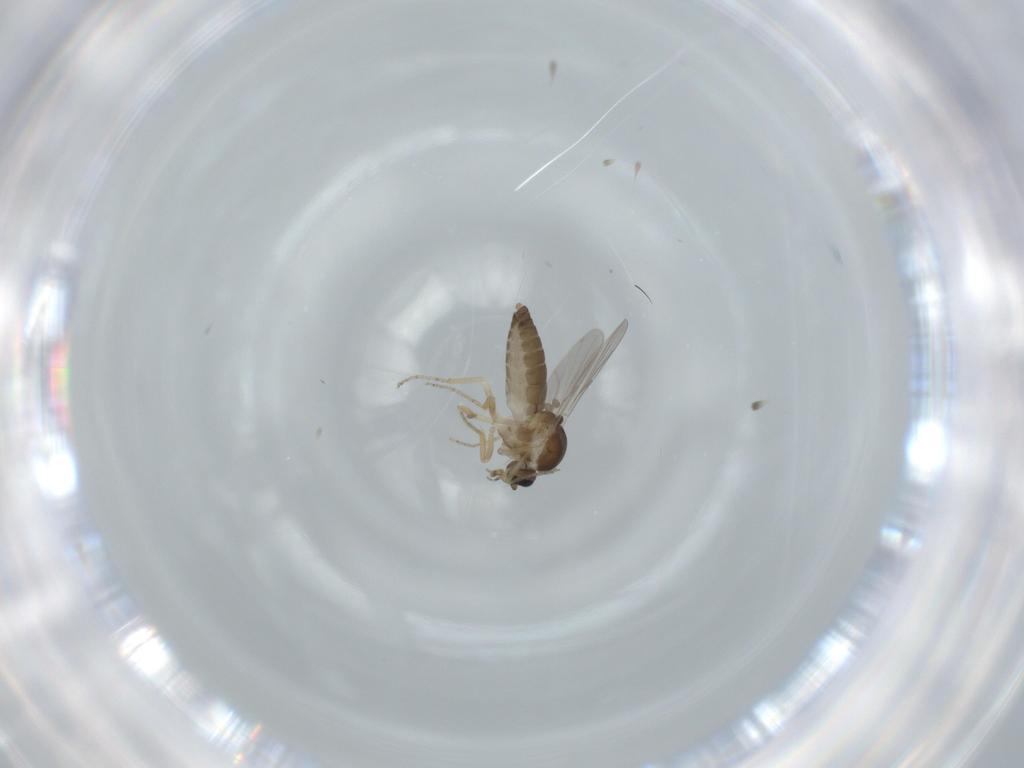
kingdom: Animalia
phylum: Arthropoda
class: Insecta
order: Diptera
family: Ceratopogonidae
